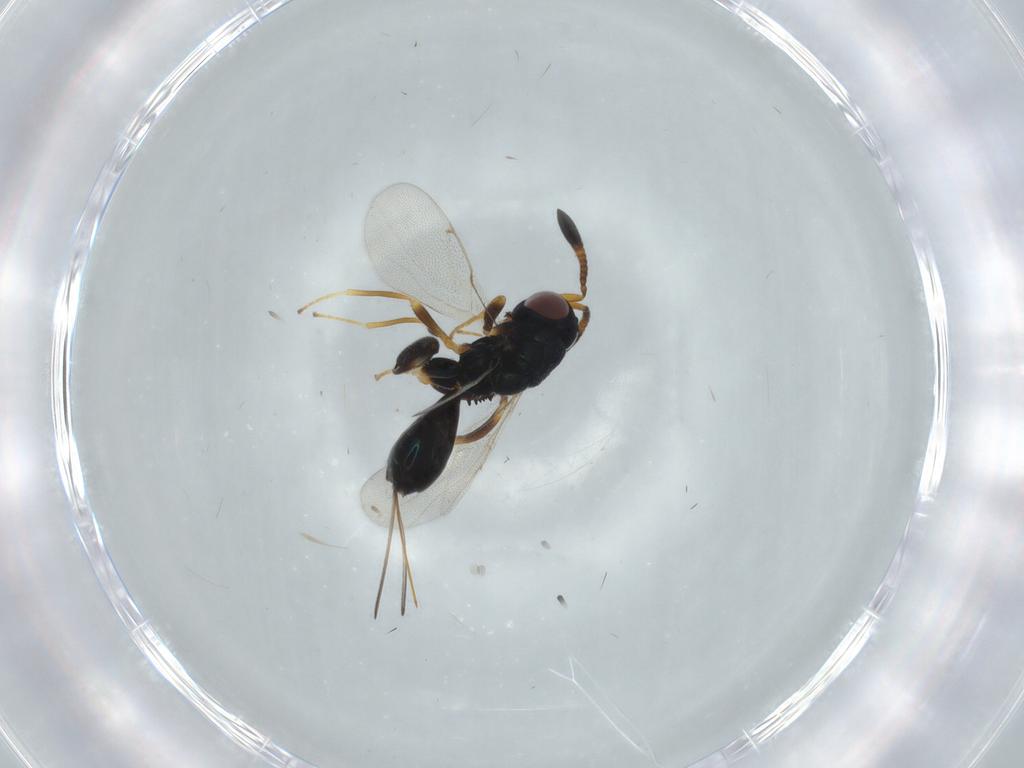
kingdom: Animalia
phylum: Arthropoda
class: Insecta
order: Hymenoptera
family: Torymidae
